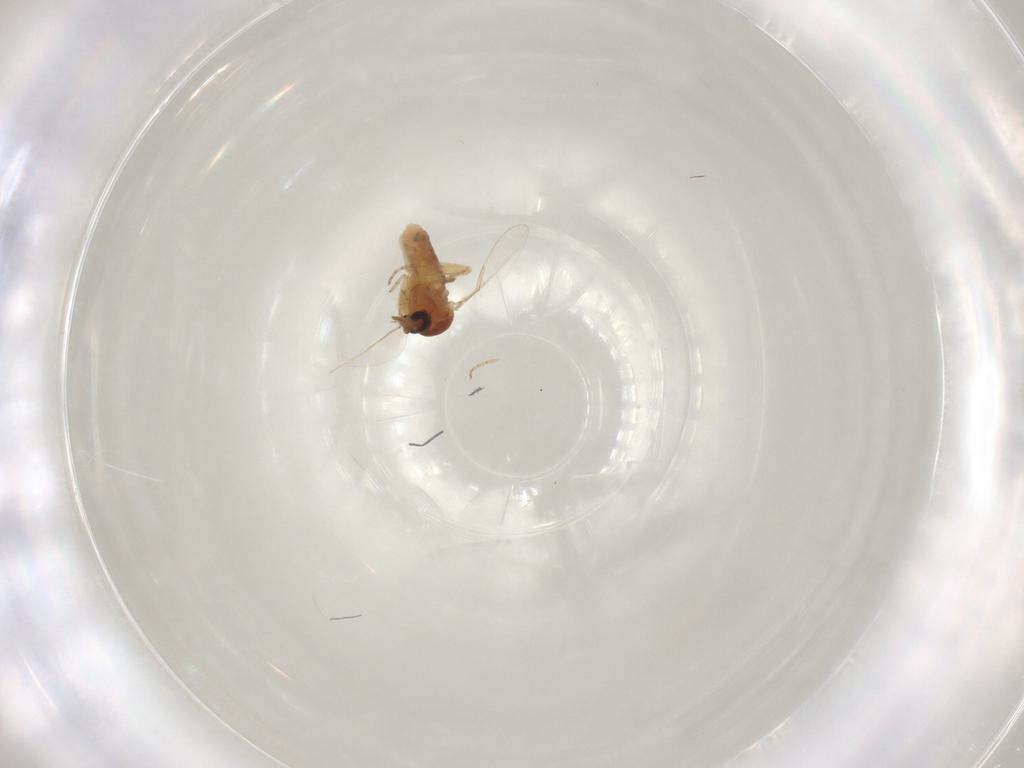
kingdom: Animalia
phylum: Arthropoda
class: Insecta
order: Diptera
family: Ceratopogonidae
